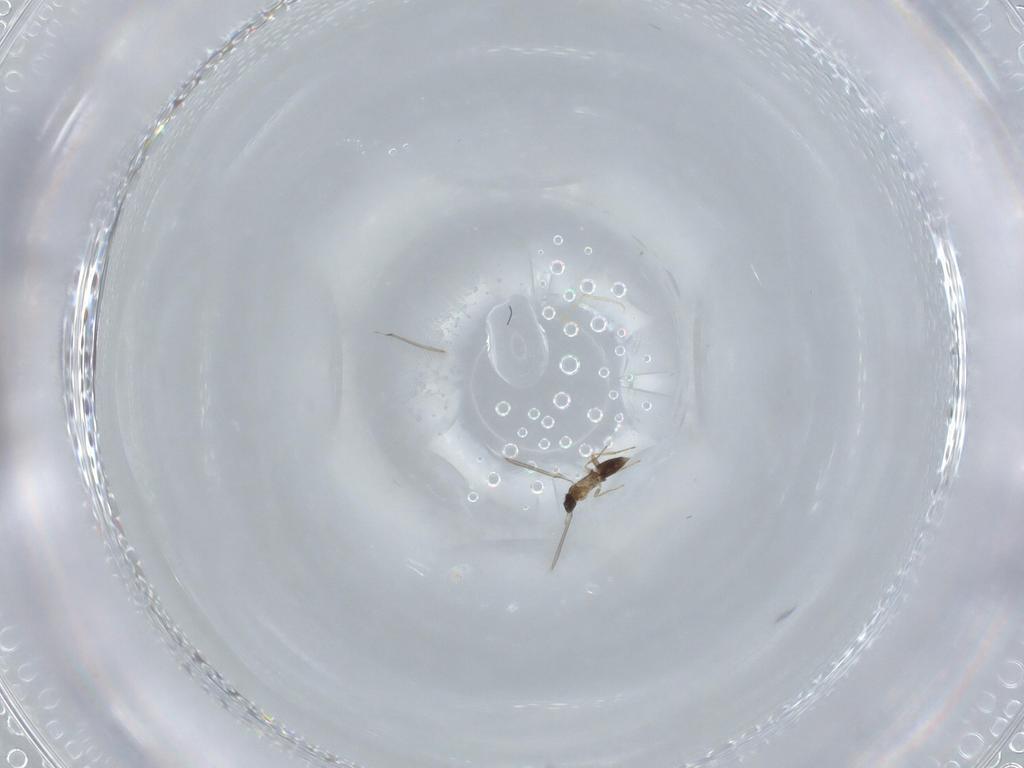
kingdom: Animalia
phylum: Arthropoda
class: Insecta
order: Hymenoptera
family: Mymaridae
